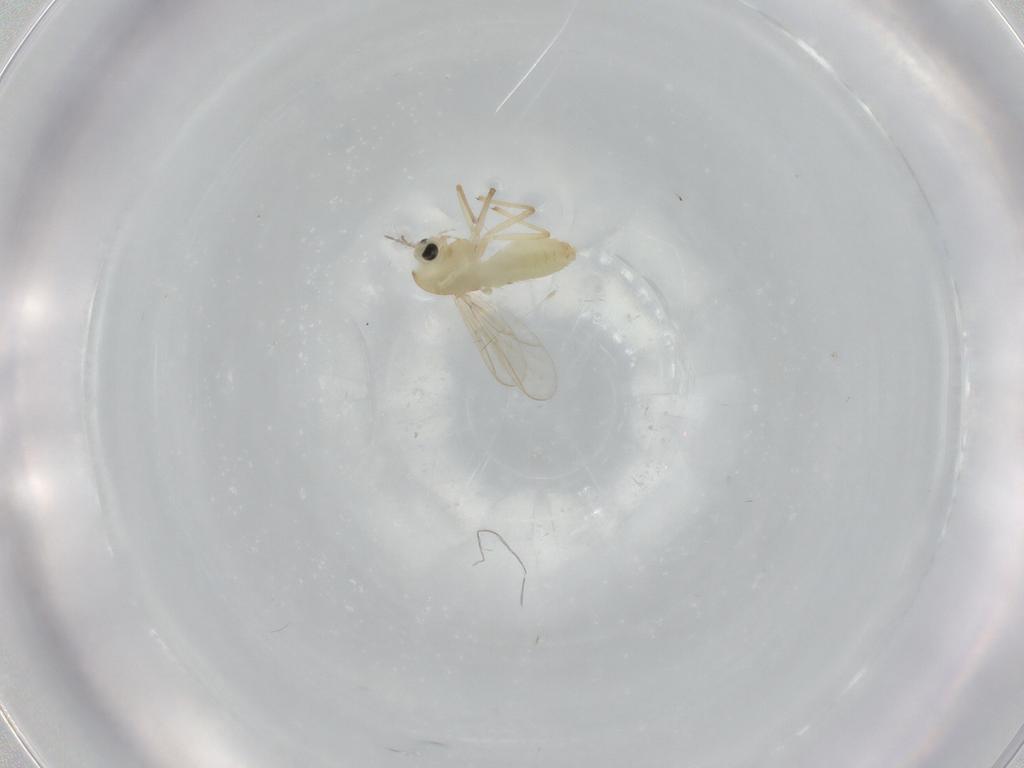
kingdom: Animalia
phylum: Arthropoda
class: Insecta
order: Diptera
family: Chironomidae
